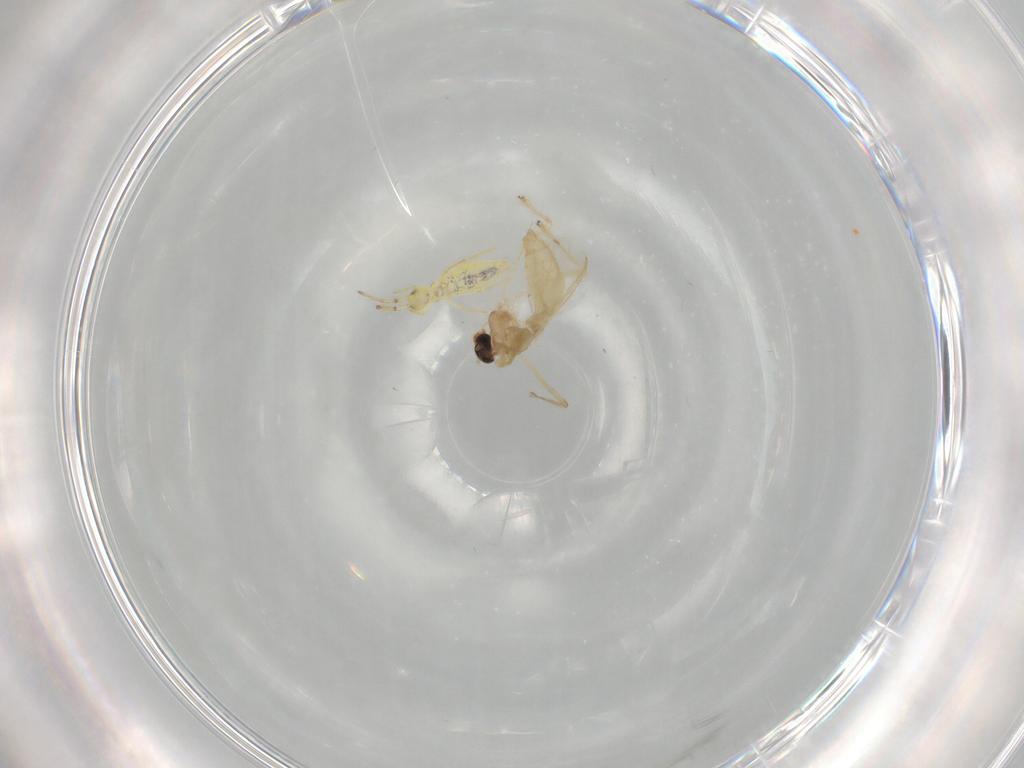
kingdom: Animalia
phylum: Arthropoda
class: Insecta
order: Diptera
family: Chironomidae
